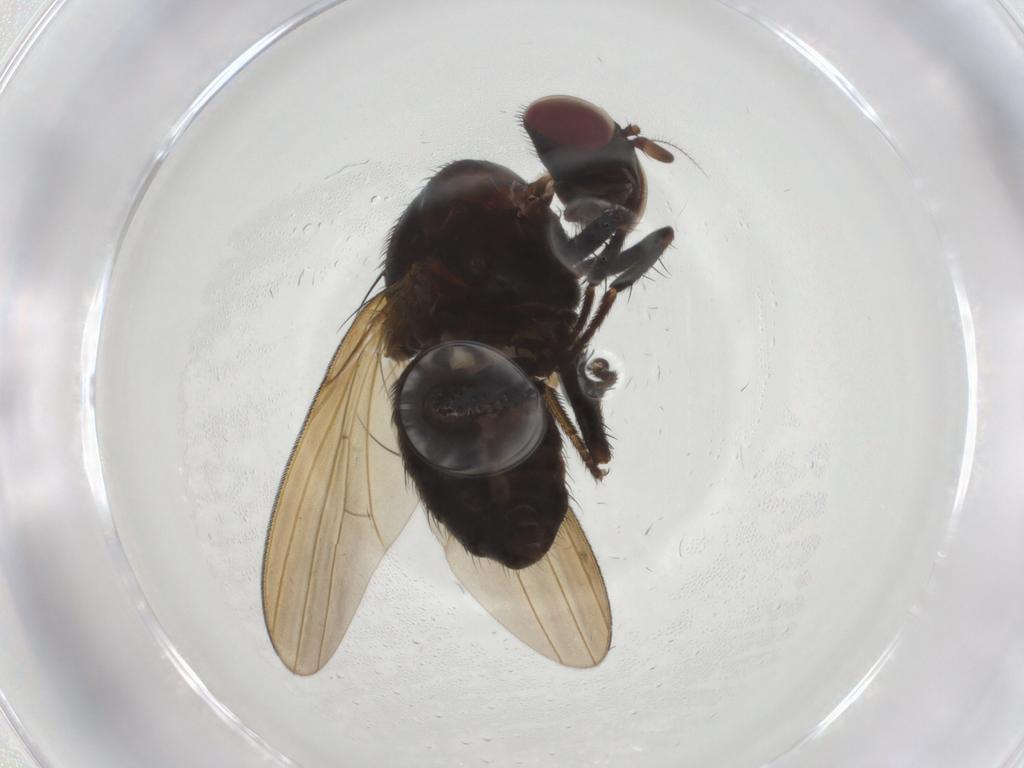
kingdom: Animalia
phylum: Arthropoda
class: Insecta
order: Diptera
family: Lauxaniidae
